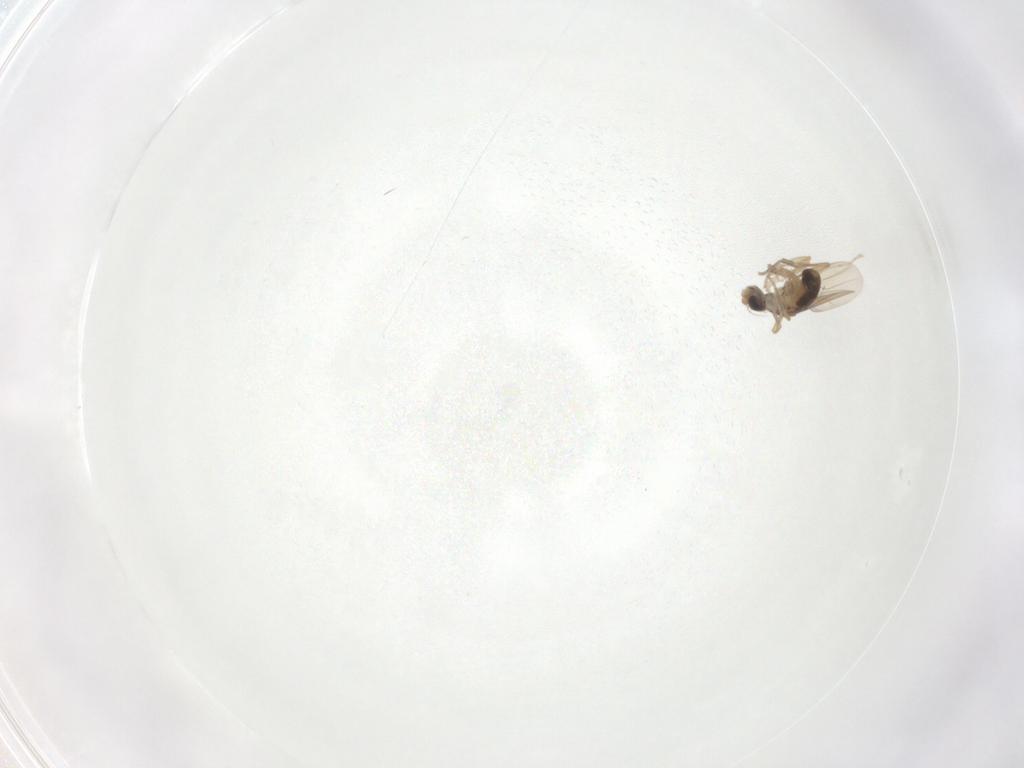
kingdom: Animalia
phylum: Arthropoda
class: Insecta
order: Diptera
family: Cecidomyiidae
